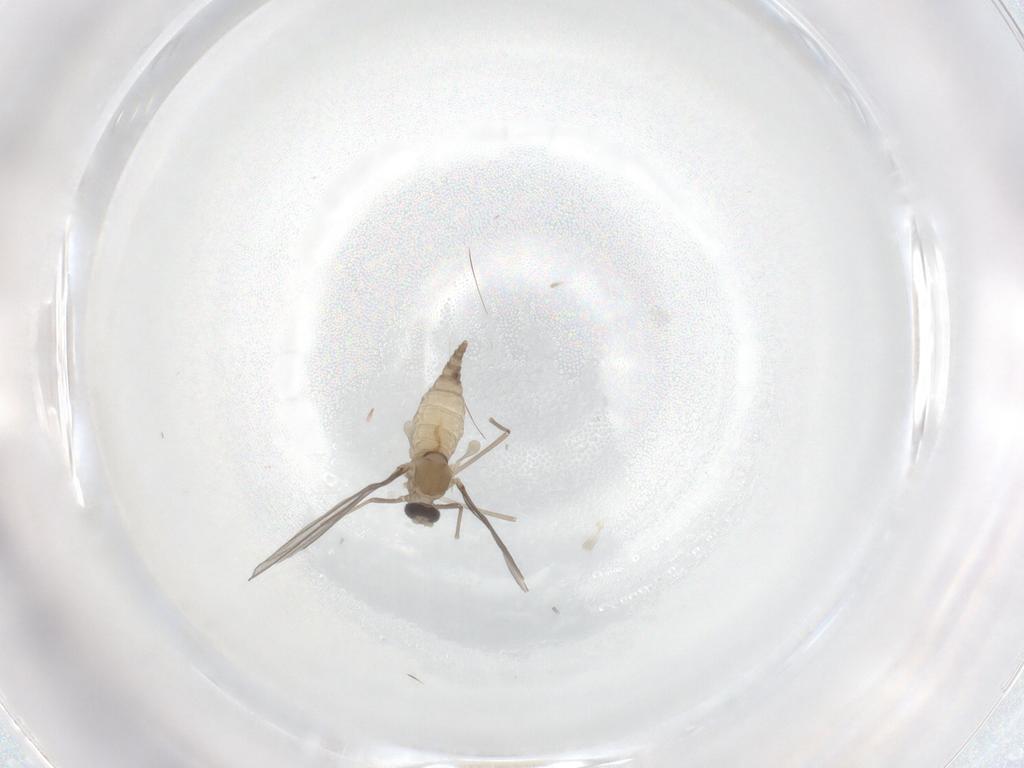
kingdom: Animalia
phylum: Arthropoda
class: Insecta
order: Diptera
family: Cecidomyiidae
